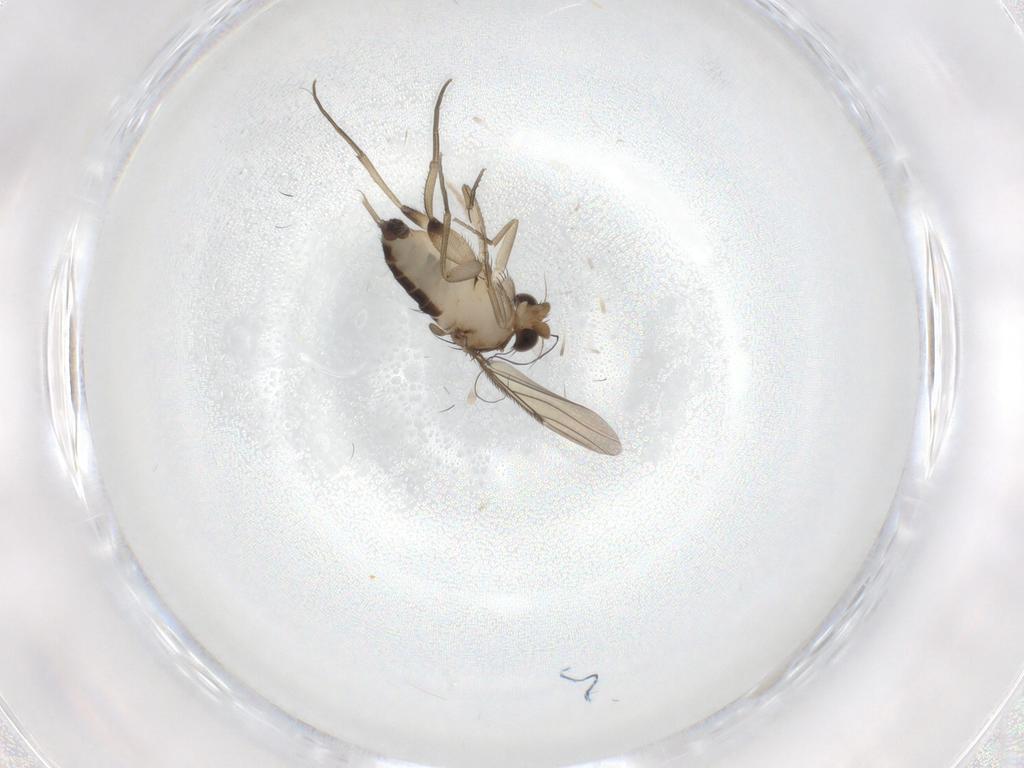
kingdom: Animalia
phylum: Arthropoda
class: Insecta
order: Diptera
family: Phoridae
